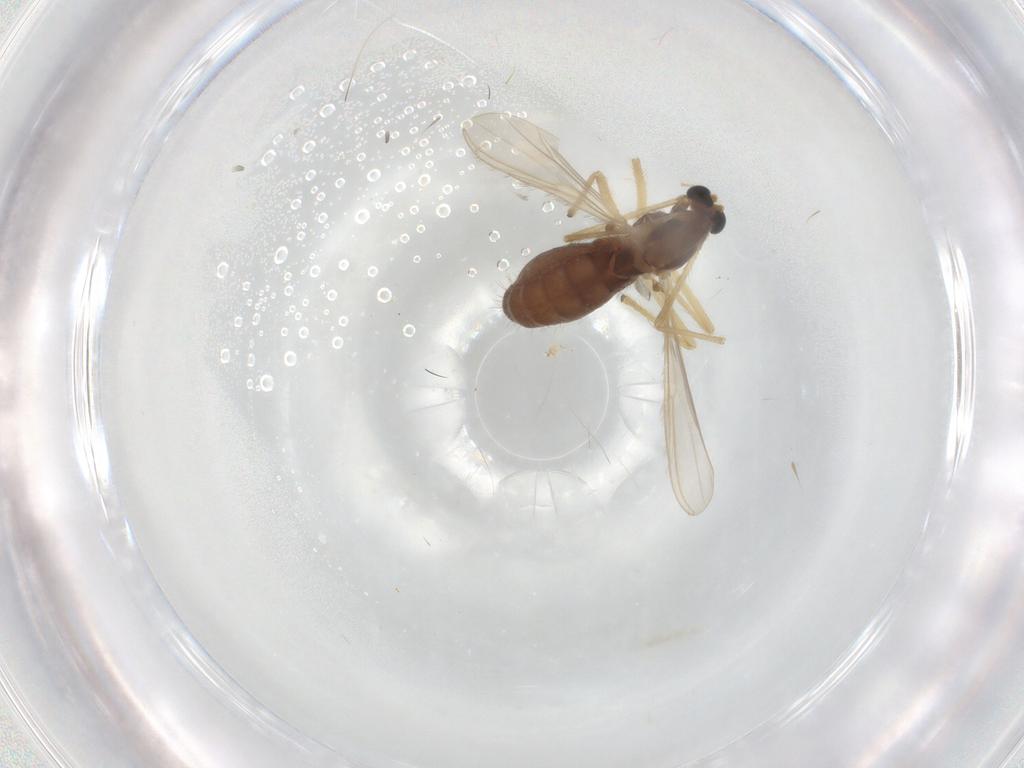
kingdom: Animalia
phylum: Arthropoda
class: Insecta
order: Diptera
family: Chironomidae
